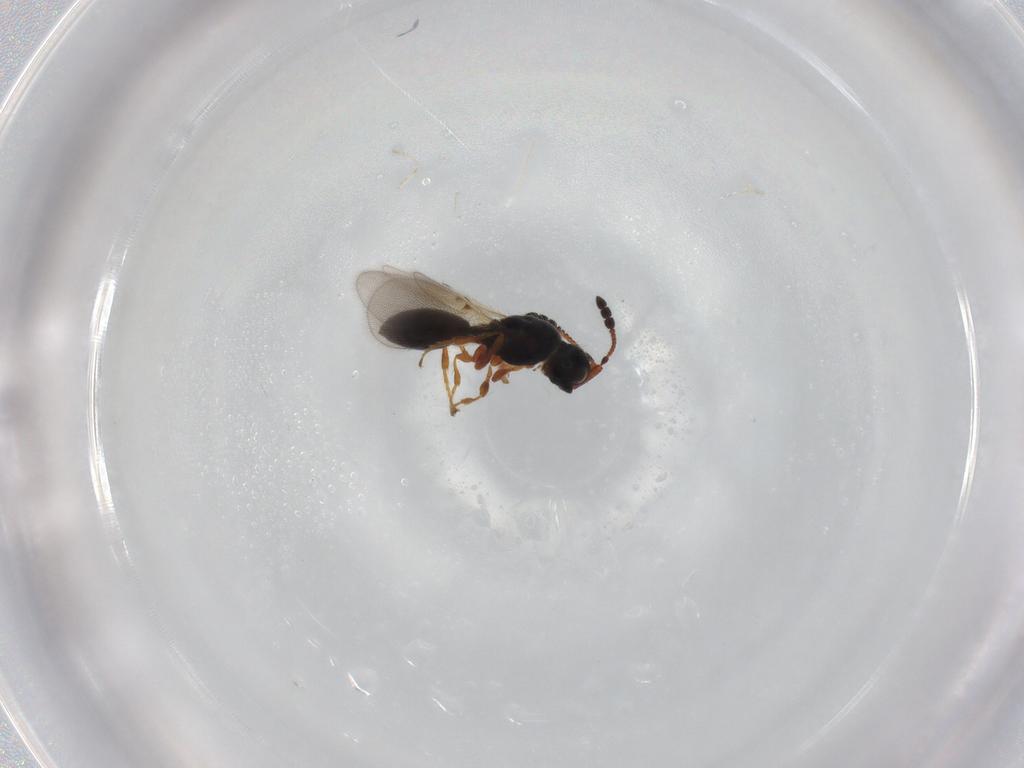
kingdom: Animalia
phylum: Arthropoda
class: Insecta
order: Hymenoptera
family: Diapriidae
